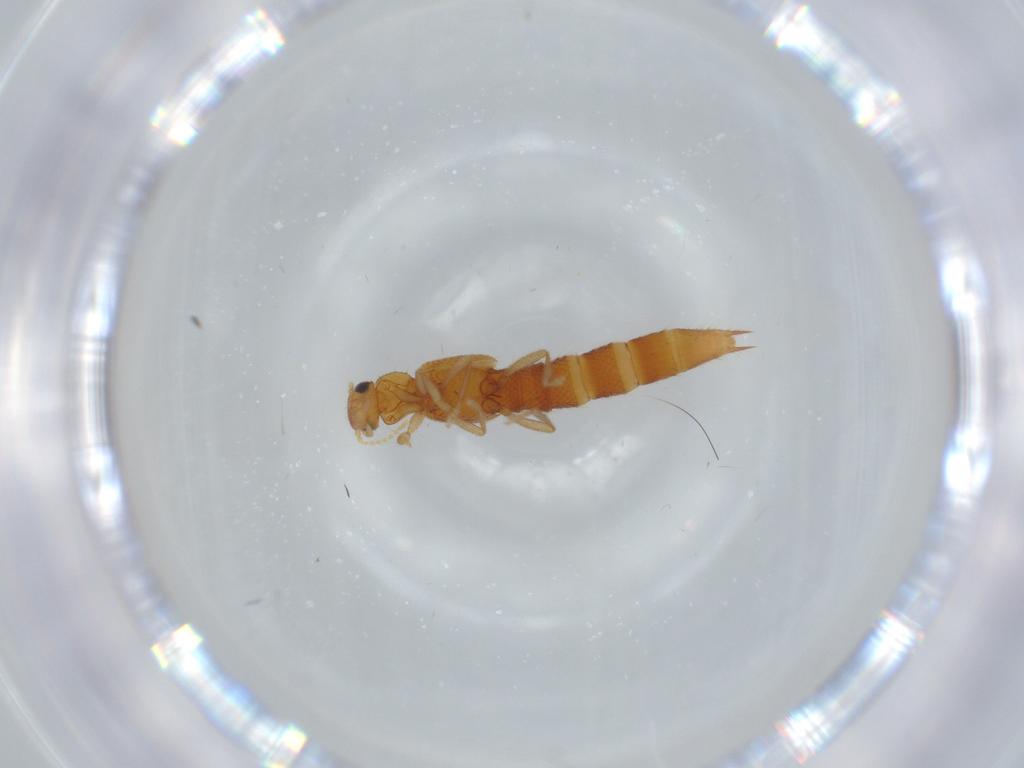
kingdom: Animalia
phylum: Arthropoda
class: Insecta
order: Coleoptera
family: Staphylinidae
